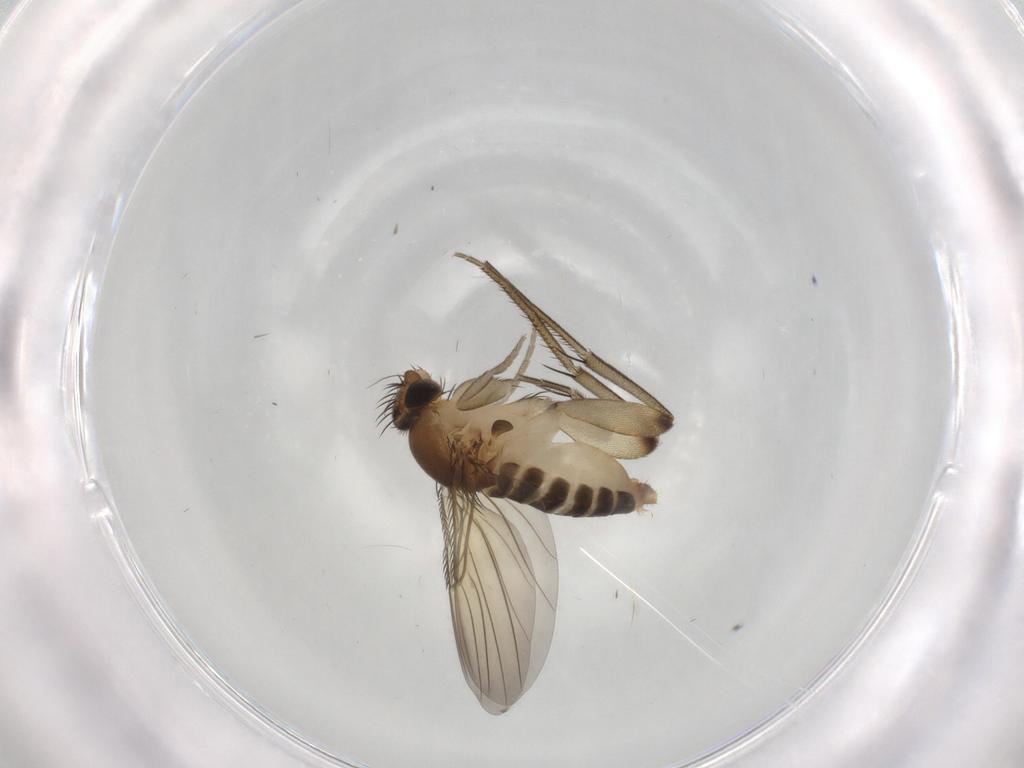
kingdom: Animalia
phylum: Arthropoda
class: Insecta
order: Diptera
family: Phoridae
